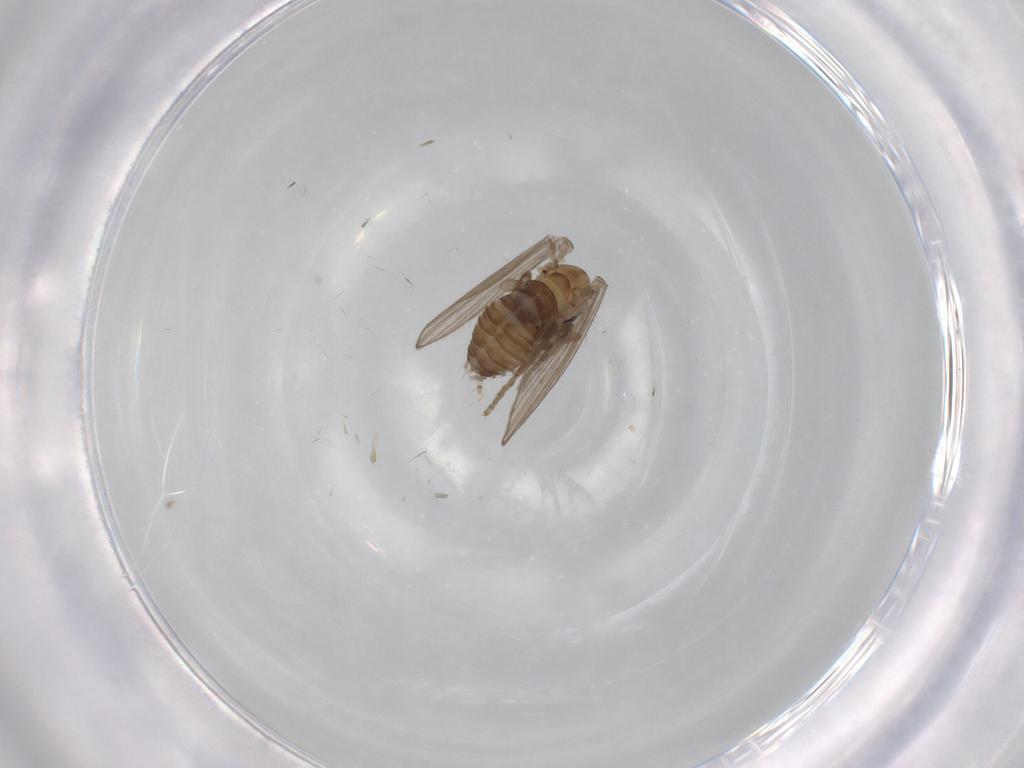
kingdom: Animalia
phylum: Arthropoda
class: Insecta
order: Diptera
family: Psychodidae
